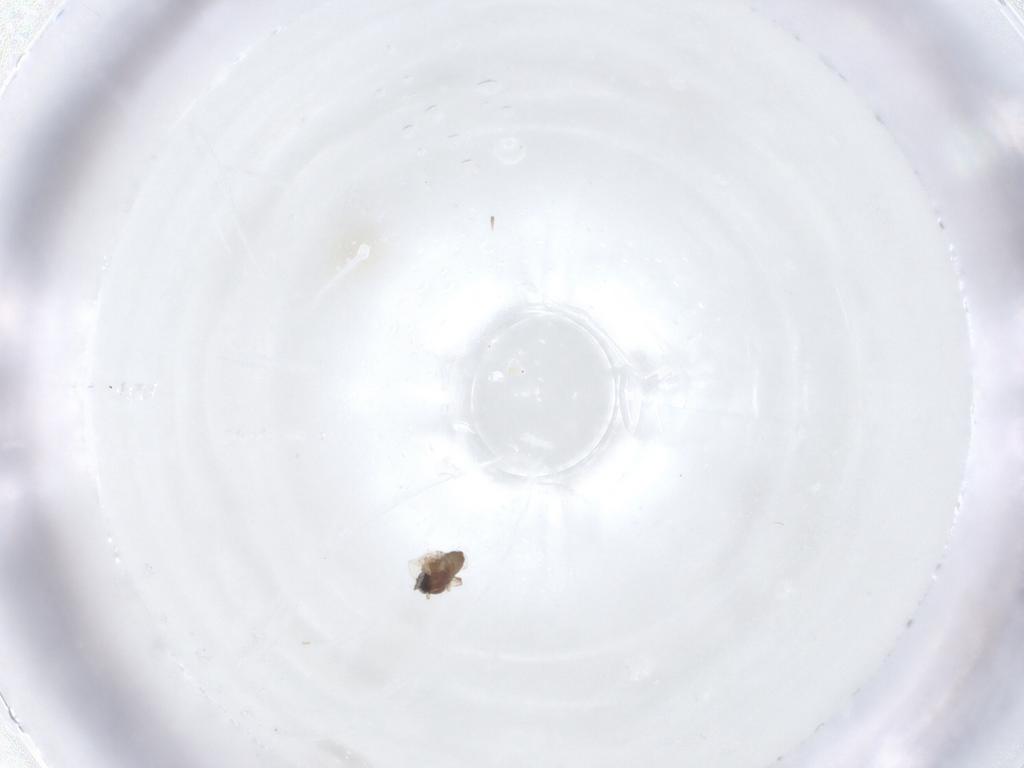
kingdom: Animalia
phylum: Arthropoda
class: Insecta
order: Diptera
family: Cecidomyiidae
